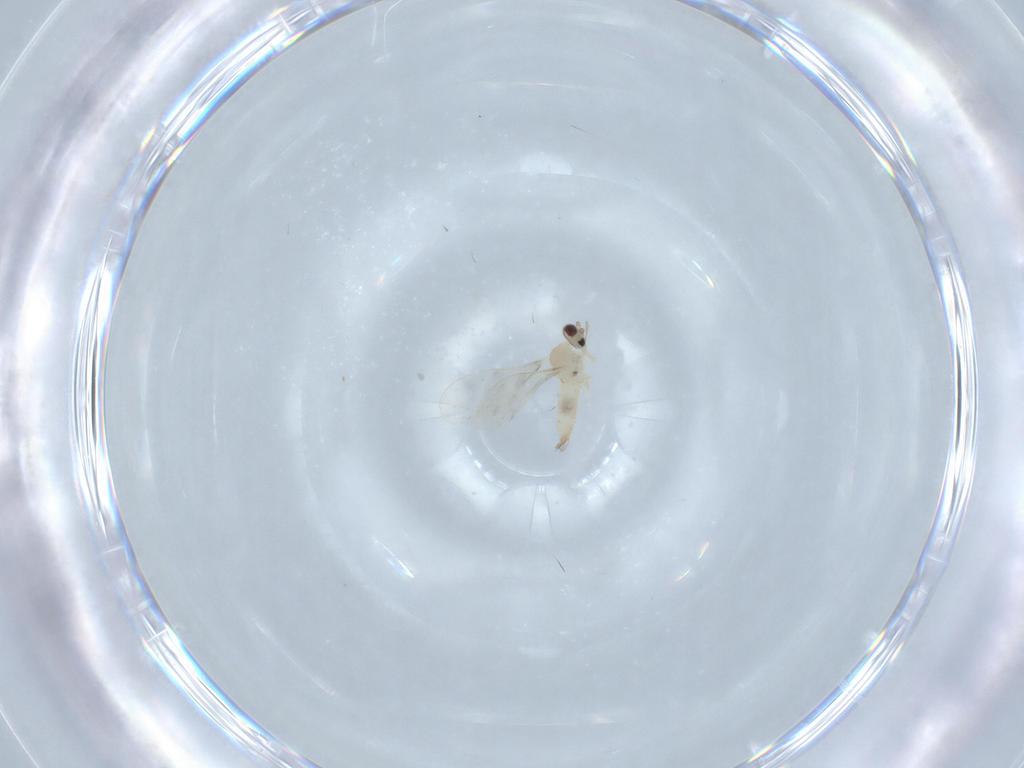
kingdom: Animalia
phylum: Arthropoda
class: Insecta
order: Diptera
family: Cecidomyiidae
